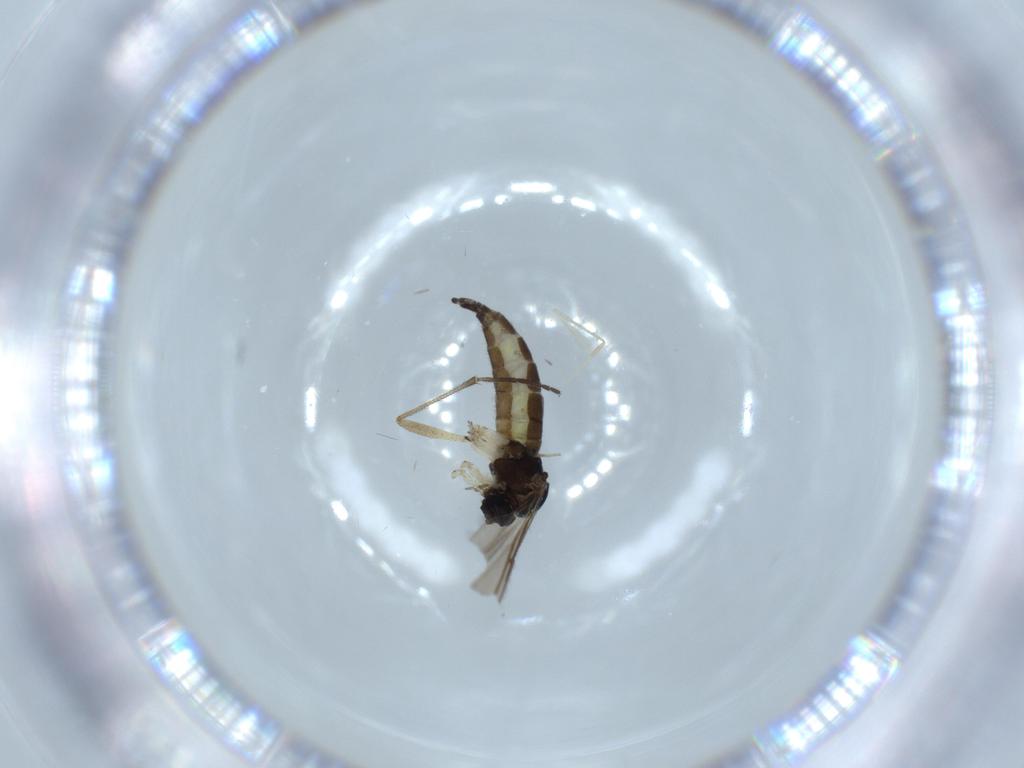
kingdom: Animalia
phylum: Arthropoda
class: Insecta
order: Diptera
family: Sciaridae
